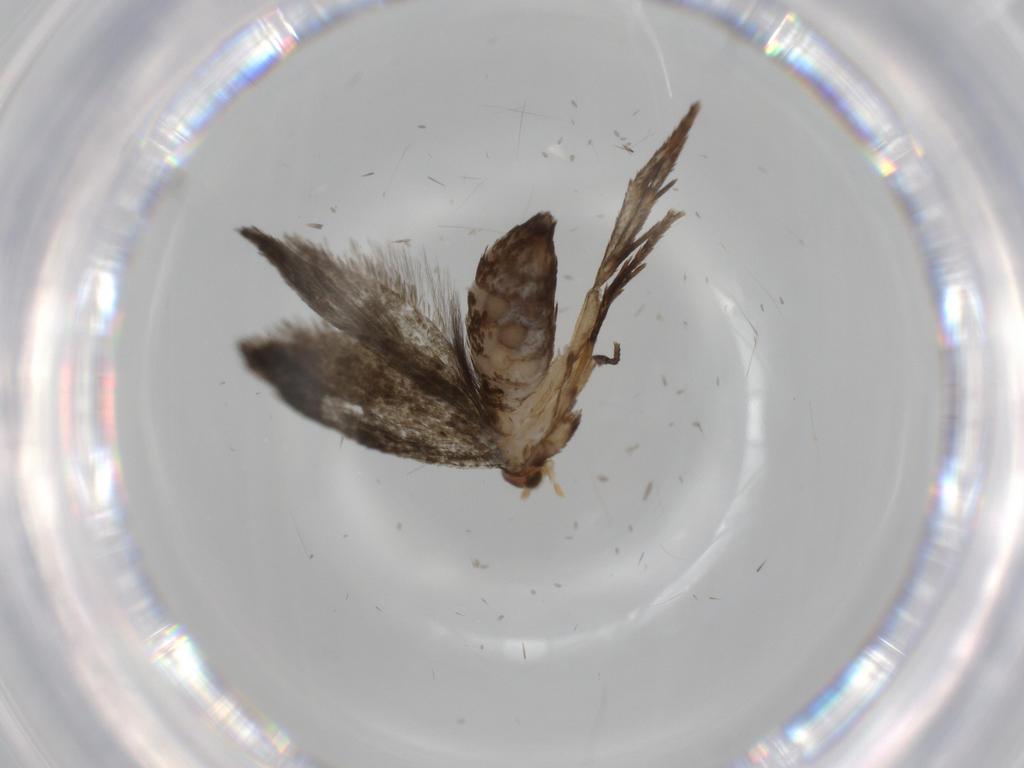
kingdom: Animalia
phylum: Arthropoda
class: Insecta
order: Lepidoptera
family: Tineidae
